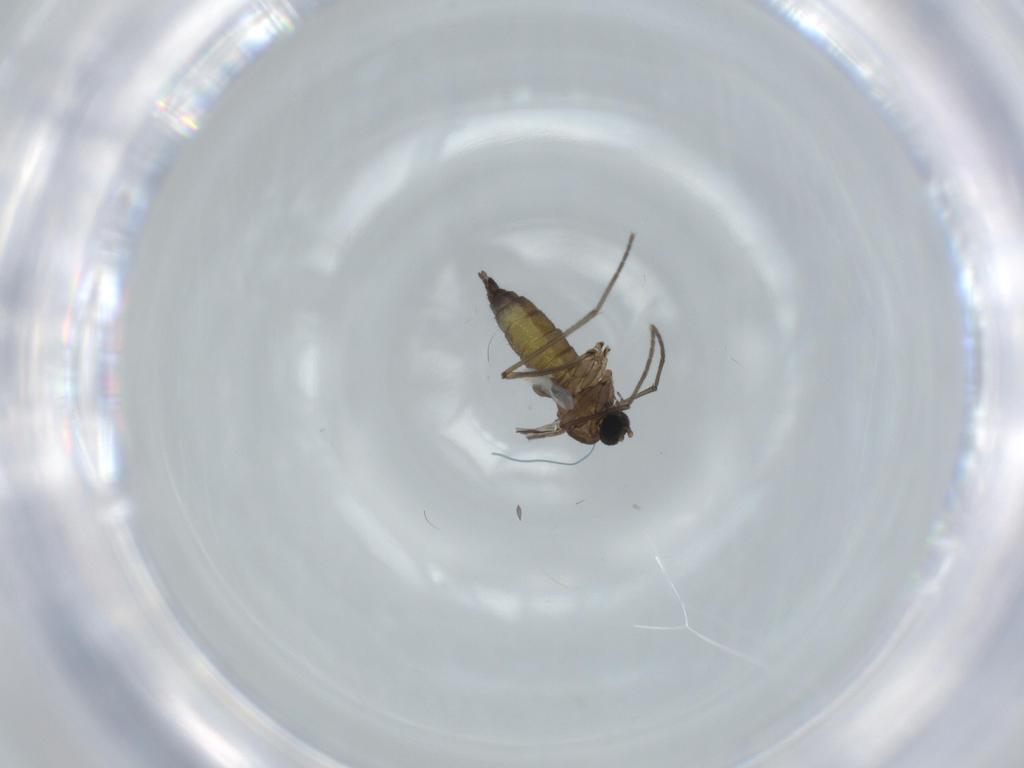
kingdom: Animalia
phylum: Arthropoda
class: Insecta
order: Diptera
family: Sciaridae
